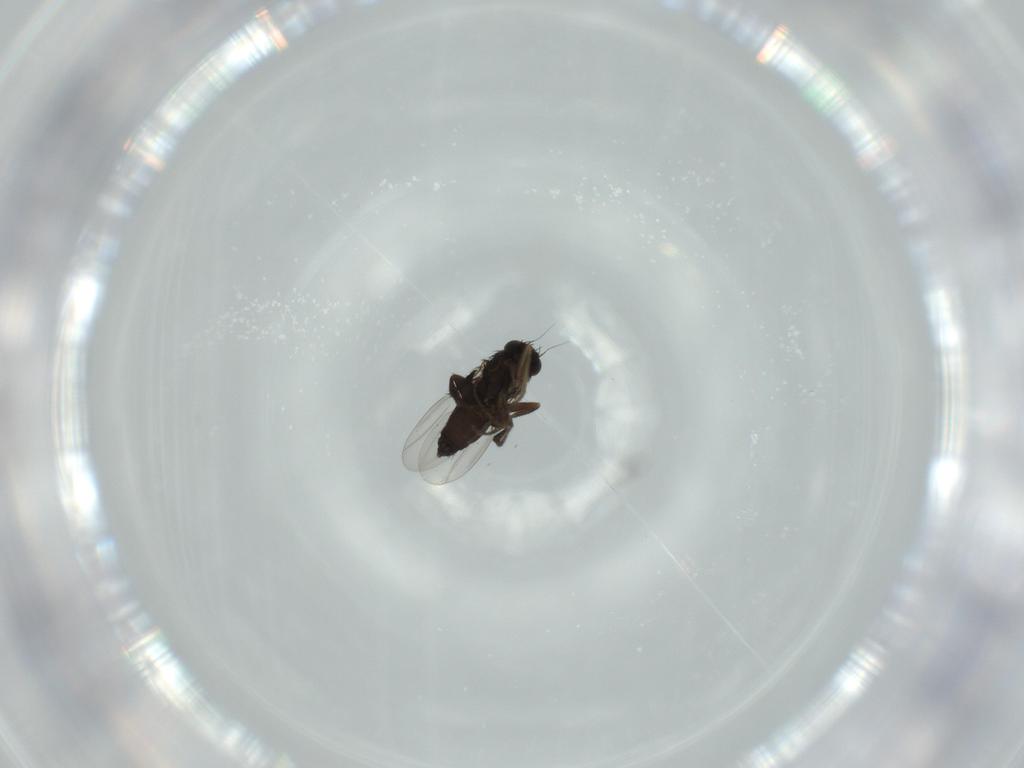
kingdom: Animalia
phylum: Arthropoda
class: Insecta
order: Diptera
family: Phoridae
